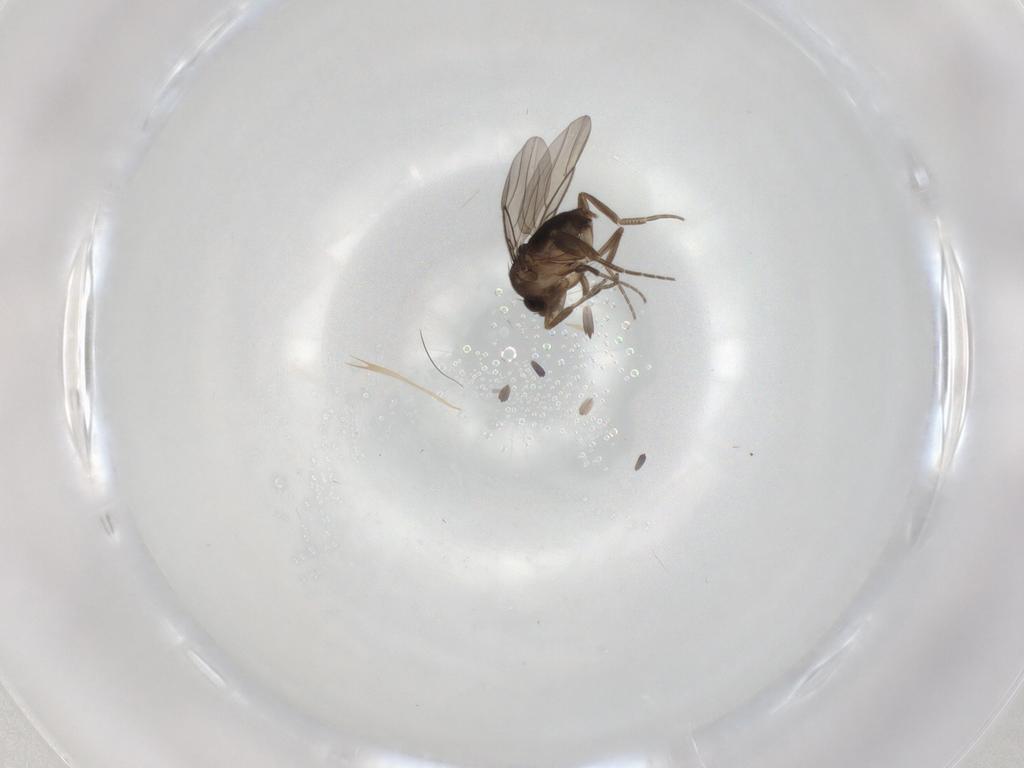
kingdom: Animalia
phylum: Arthropoda
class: Insecta
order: Diptera
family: Phoridae
